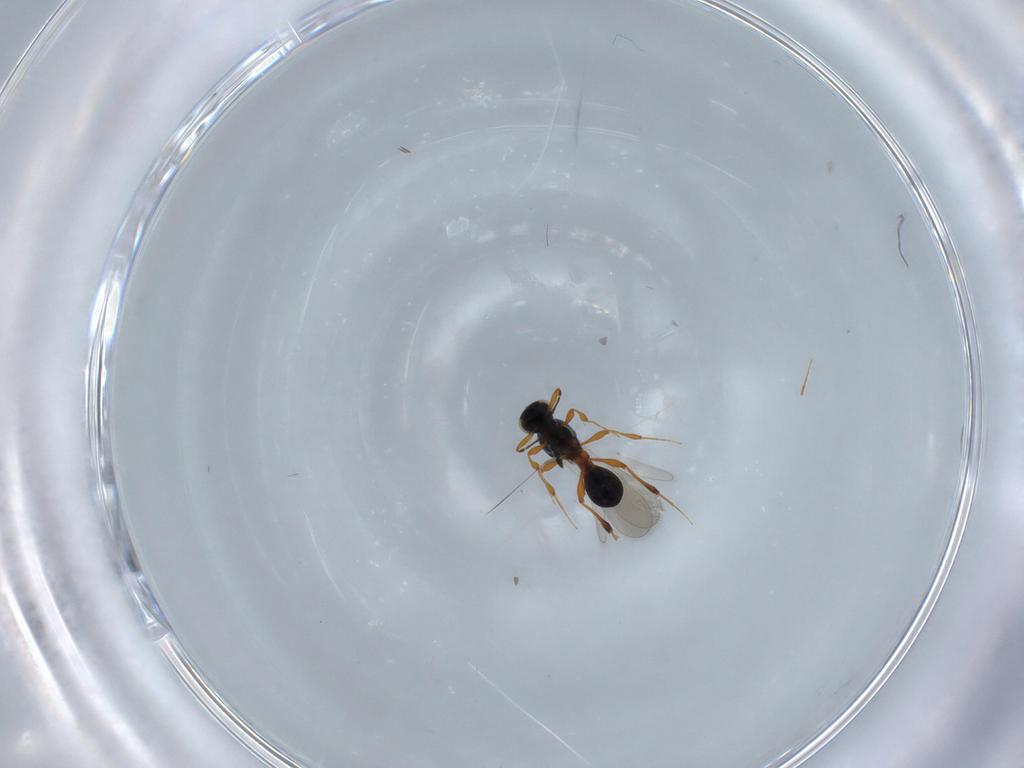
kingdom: Animalia
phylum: Arthropoda
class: Insecta
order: Hymenoptera
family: Platygastridae
